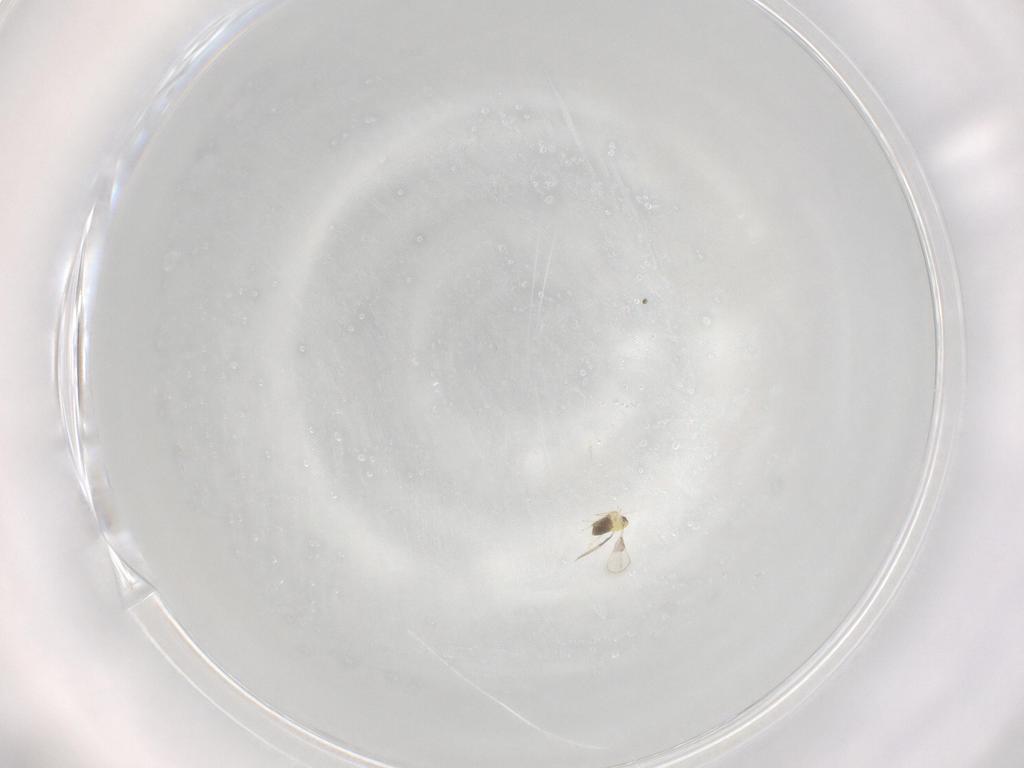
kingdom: Animalia
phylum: Arthropoda
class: Insecta
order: Hymenoptera
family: Trichogrammatidae
